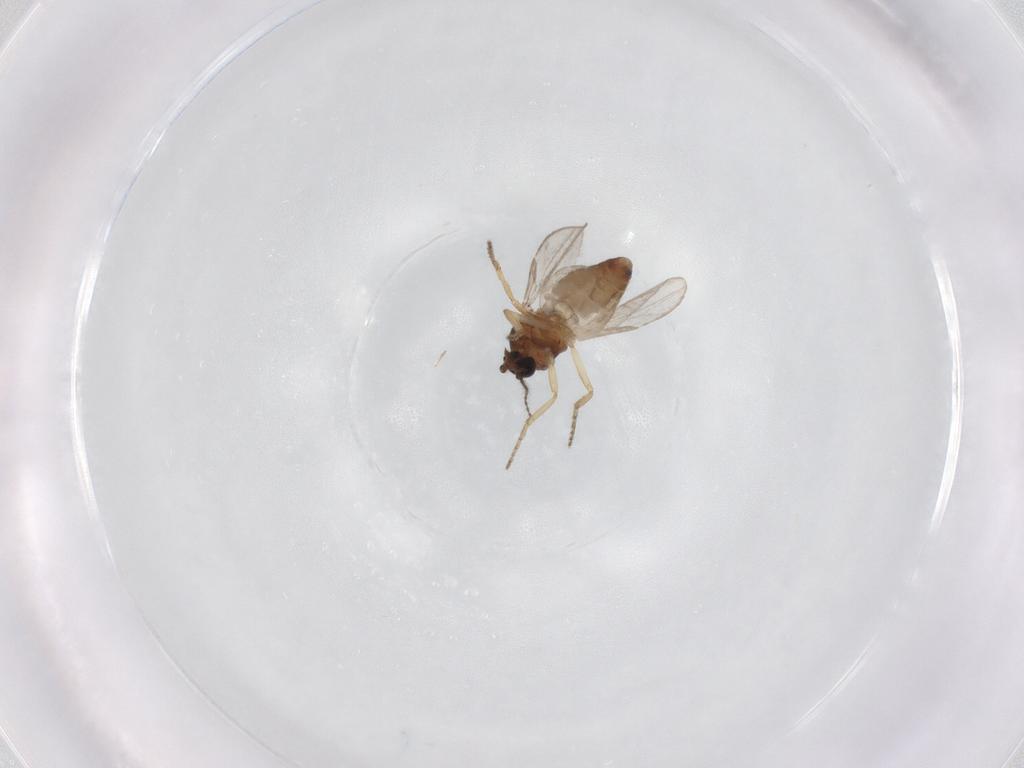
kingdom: Animalia
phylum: Arthropoda
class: Insecta
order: Diptera
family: Ceratopogonidae
